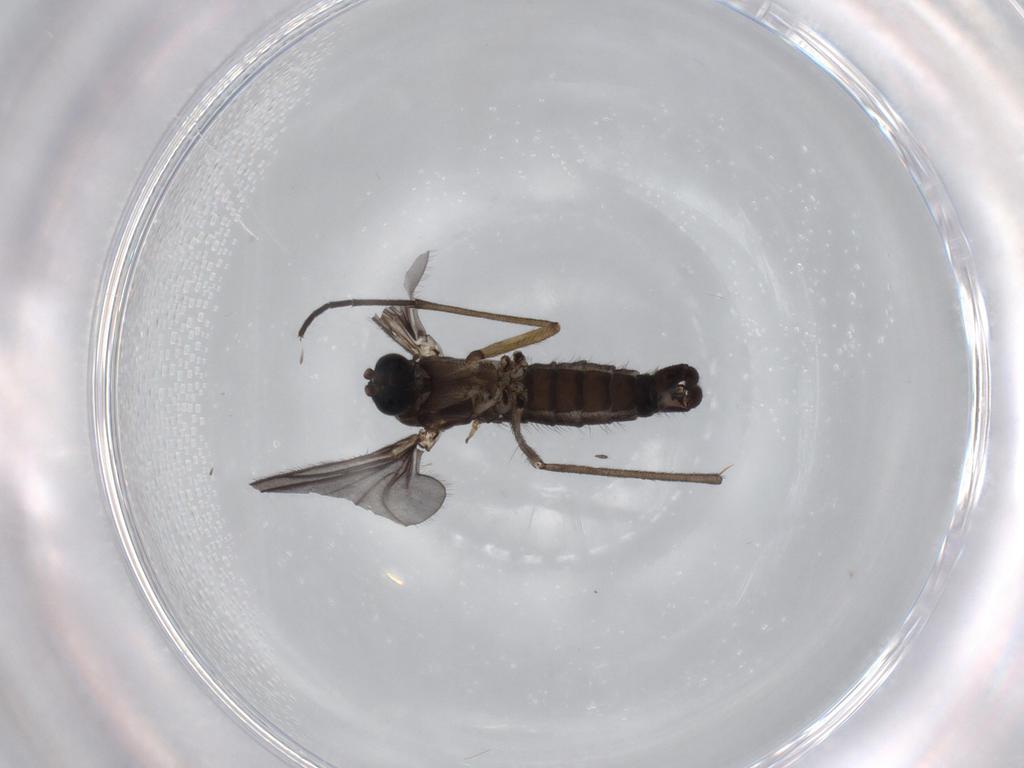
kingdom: Animalia
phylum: Arthropoda
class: Insecta
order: Diptera
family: Sciaridae
